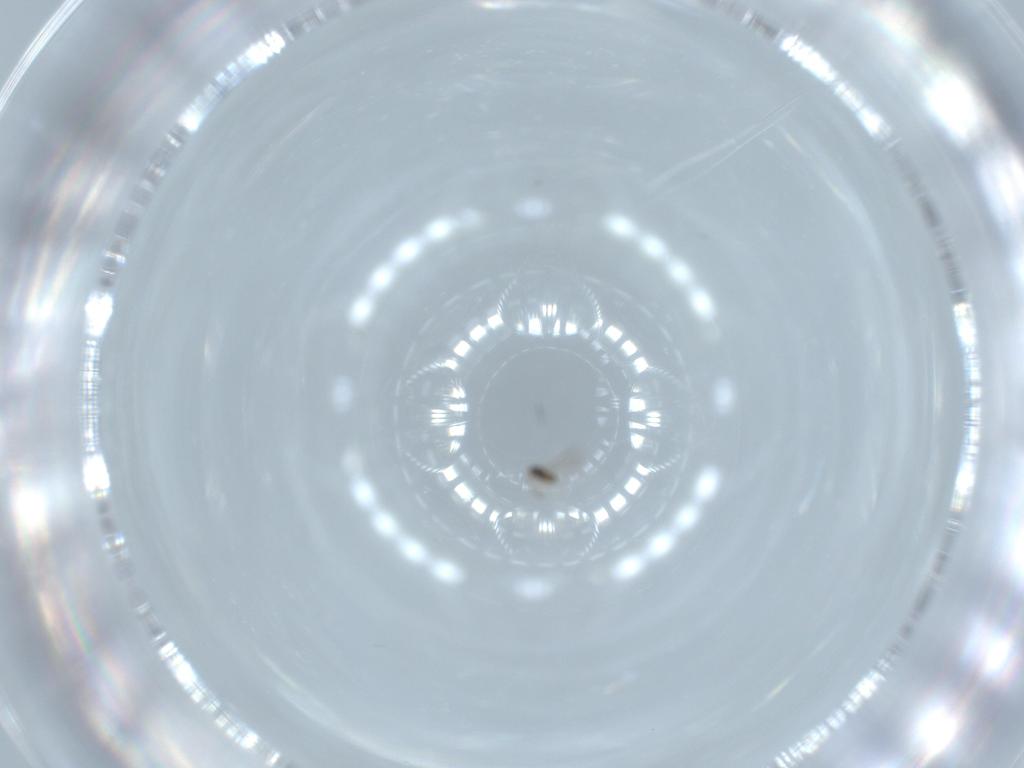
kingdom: Animalia
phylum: Arthropoda
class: Insecta
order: Hymenoptera
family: Formicidae
